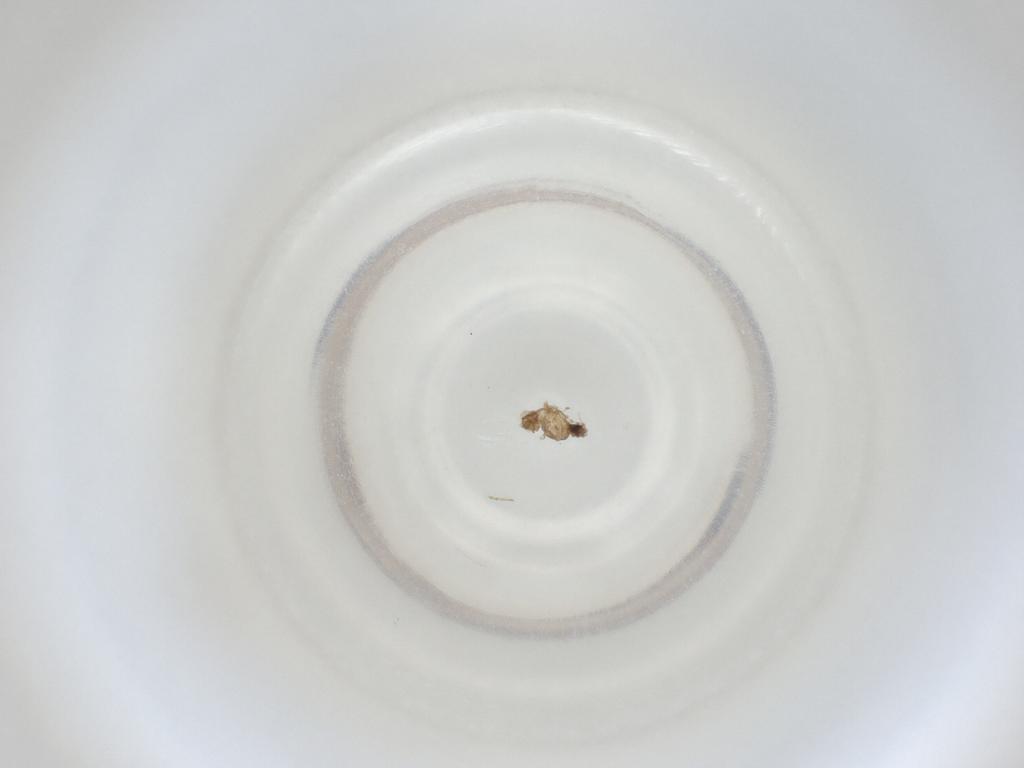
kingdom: Animalia
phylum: Arthropoda
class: Insecta
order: Diptera
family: Cecidomyiidae
